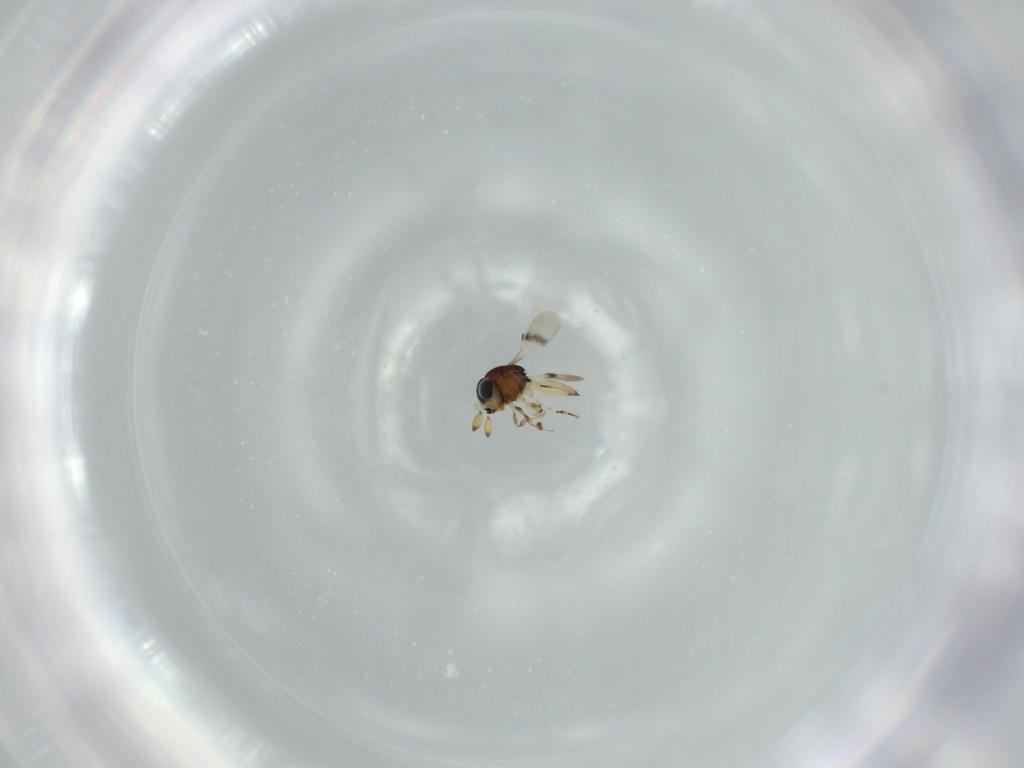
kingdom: Animalia
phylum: Arthropoda
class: Insecta
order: Hymenoptera
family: Scelionidae
